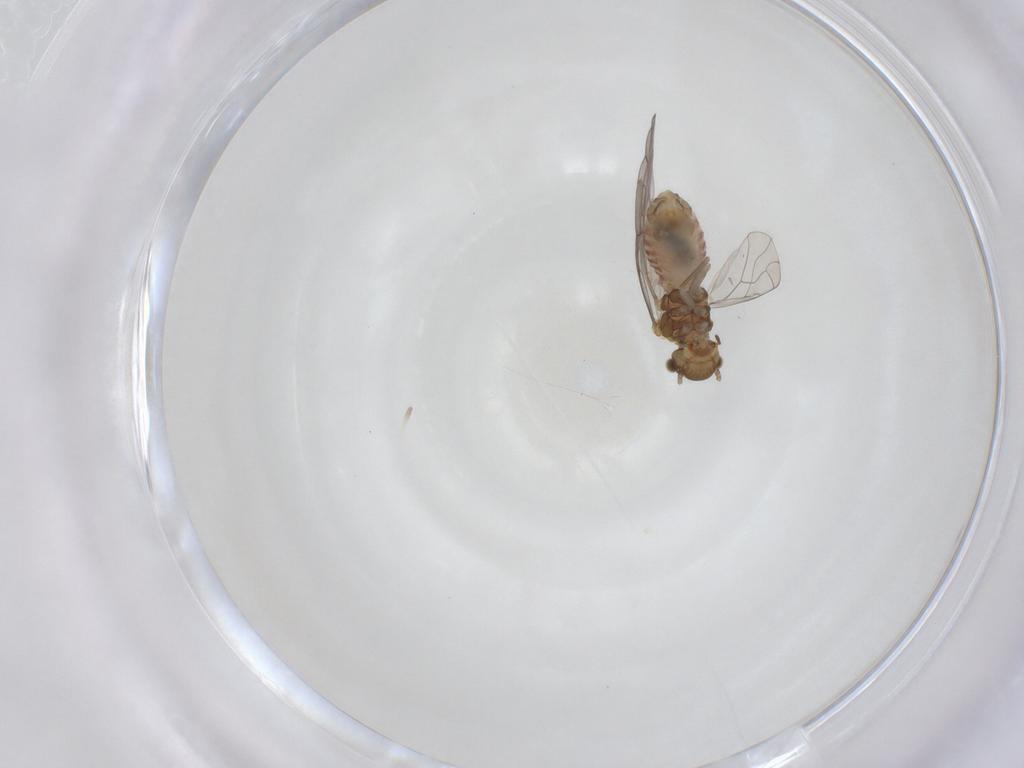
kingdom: Animalia
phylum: Arthropoda
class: Insecta
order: Psocodea
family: Lachesillidae
